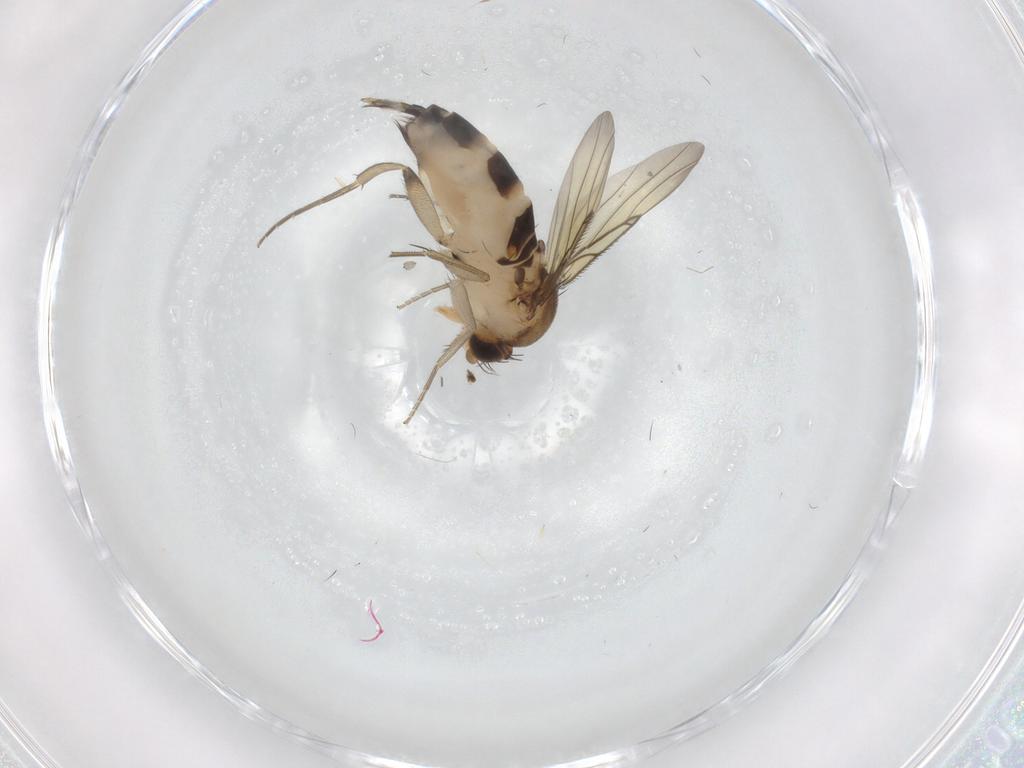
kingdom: Animalia
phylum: Arthropoda
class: Insecta
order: Diptera
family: Phoridae
